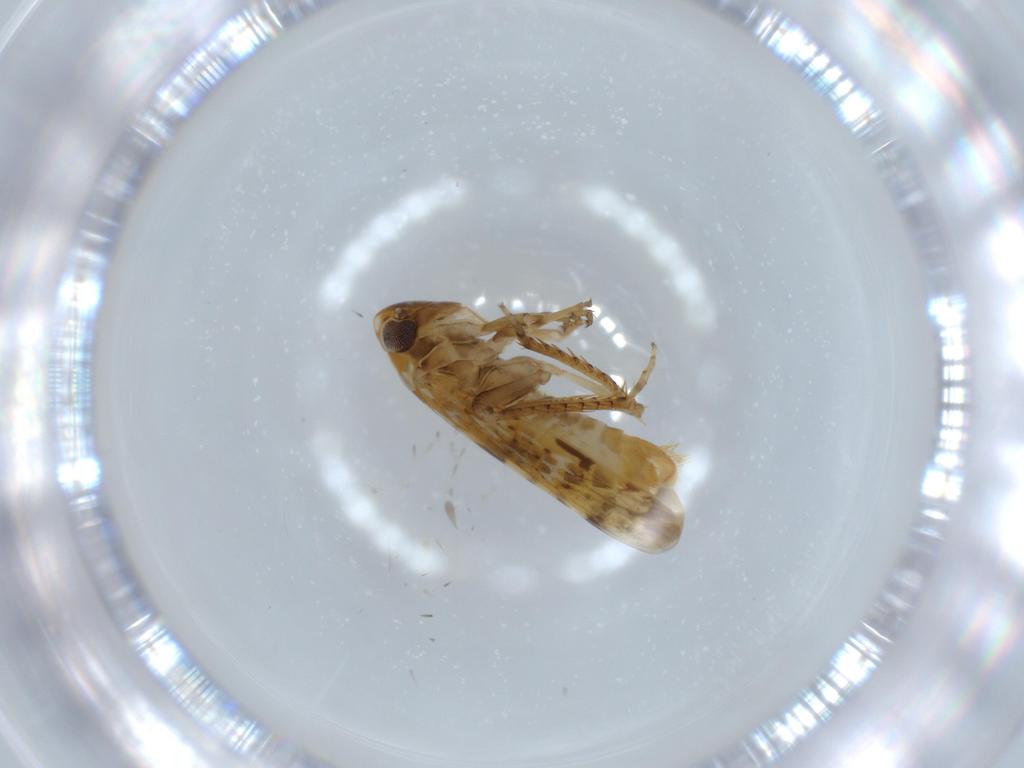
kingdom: Animalia
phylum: Arthropoda
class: Insecta
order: Hemiptera
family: Cicadellidae
